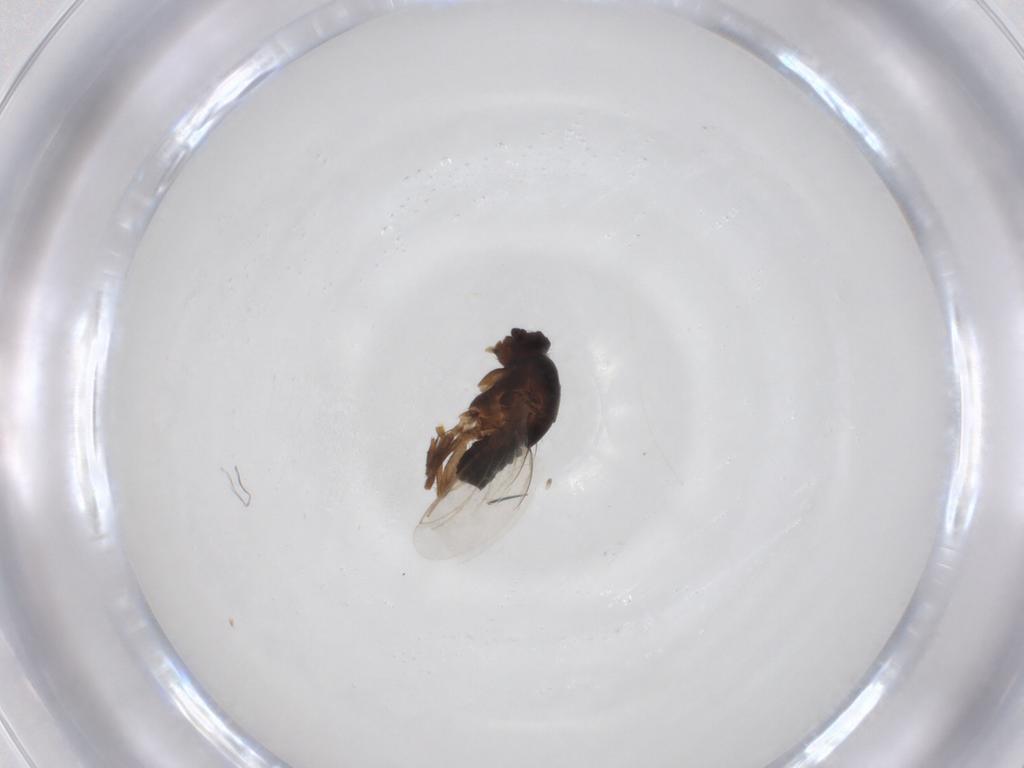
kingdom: Animalia
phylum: Arthropoda
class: Insecta
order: Diptera
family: Sphaeroceridae
